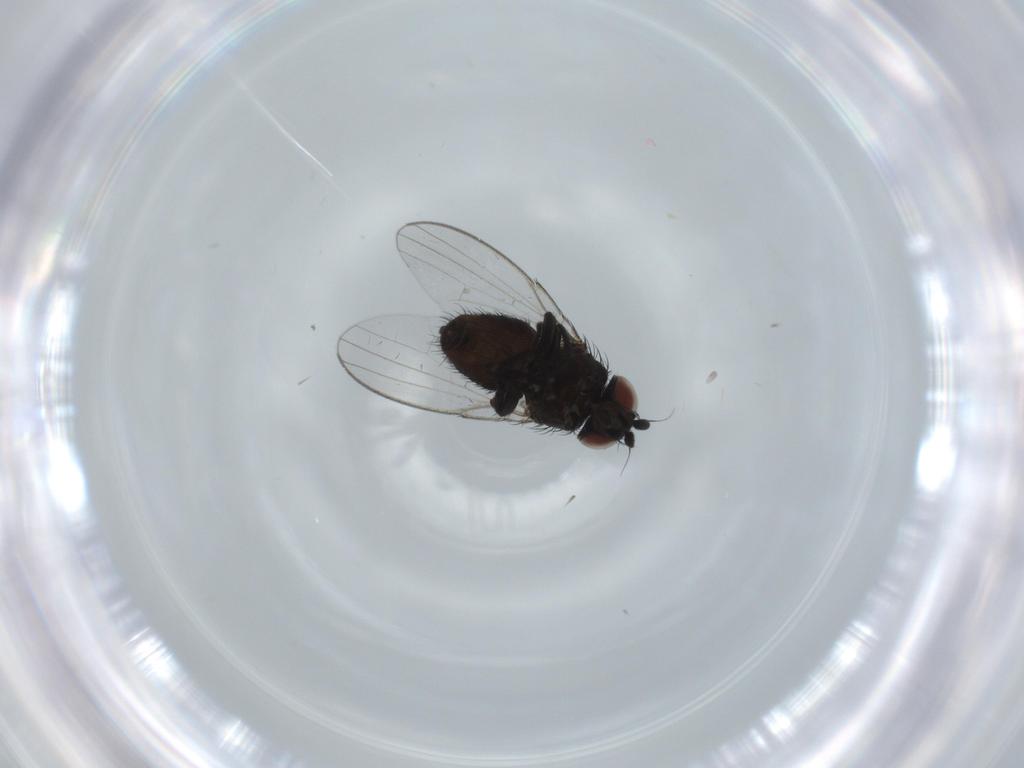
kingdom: Animalia
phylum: Arthropoda
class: Insecta
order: Diptera
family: Milichiidae
